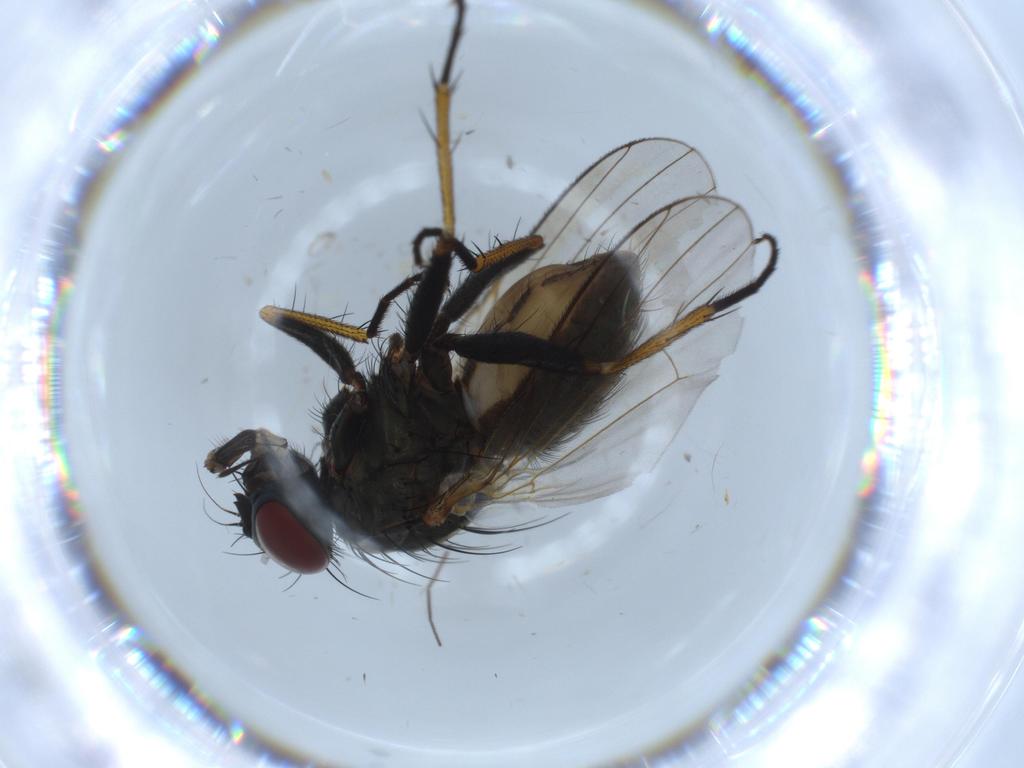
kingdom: Animalia
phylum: Arthropoda
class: Insecta
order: Diptera
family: Chironomidae
